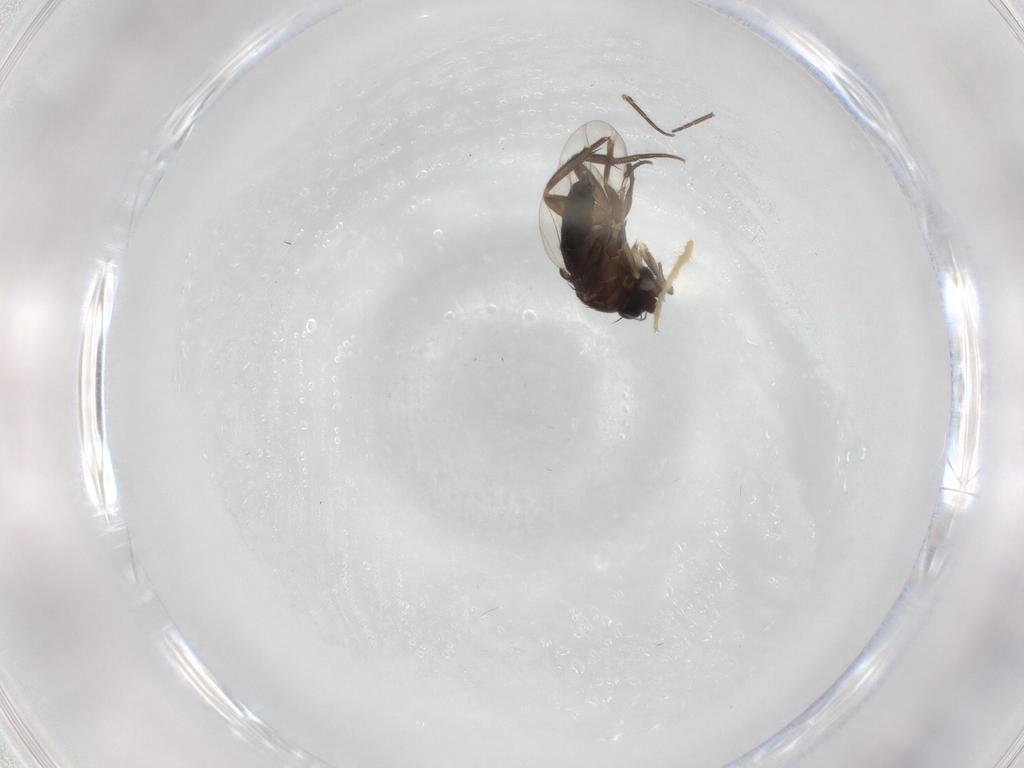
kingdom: Animalia
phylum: Arthropoda
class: Insecta
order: Diptera
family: Phoridae
